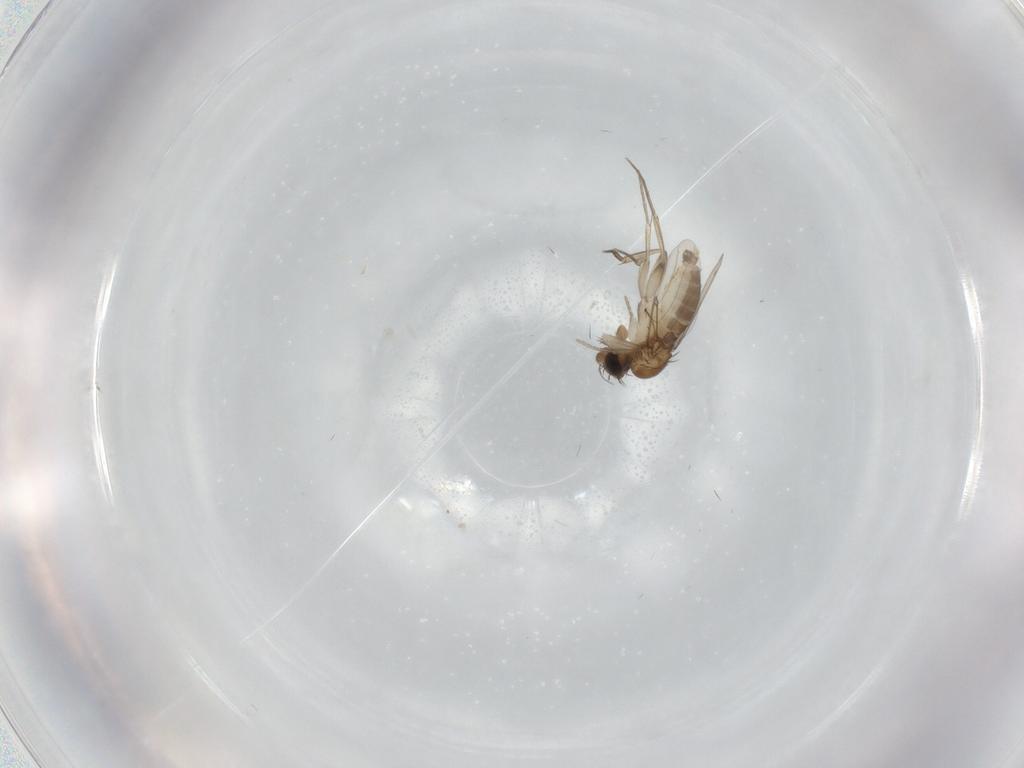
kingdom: Animalia
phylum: Arthropoda
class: Insecta
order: Diptera
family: Phoridae
